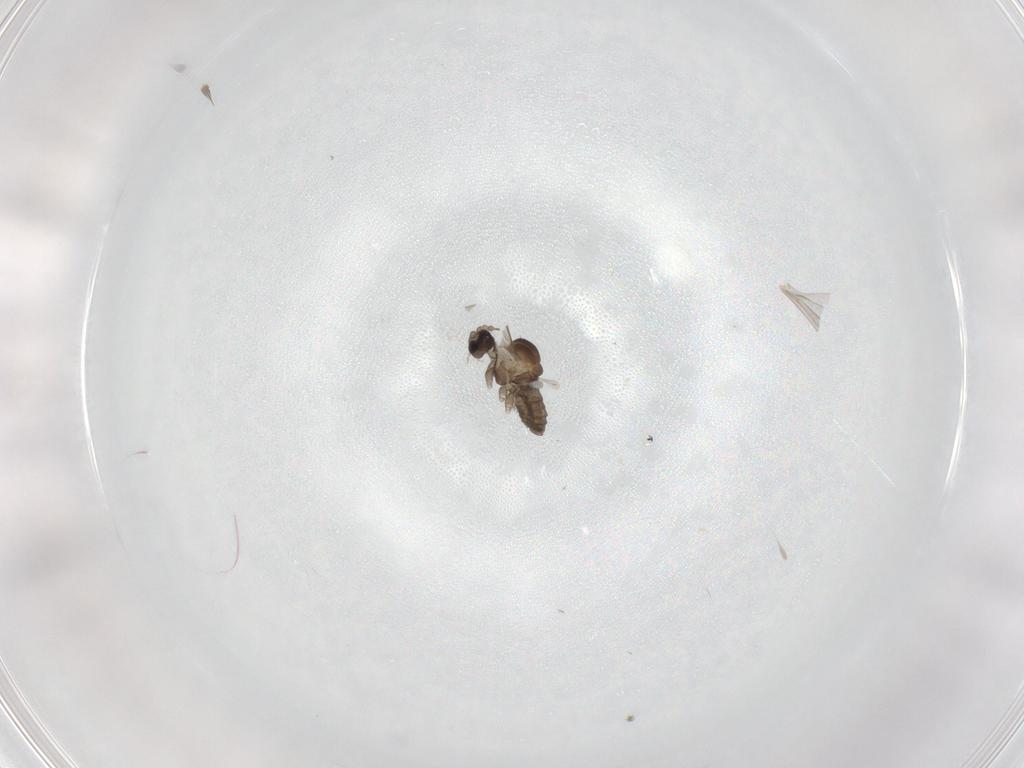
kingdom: Animalia
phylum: Arthropoda
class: Insecta
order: Diptera
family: Cecidomyiidae
